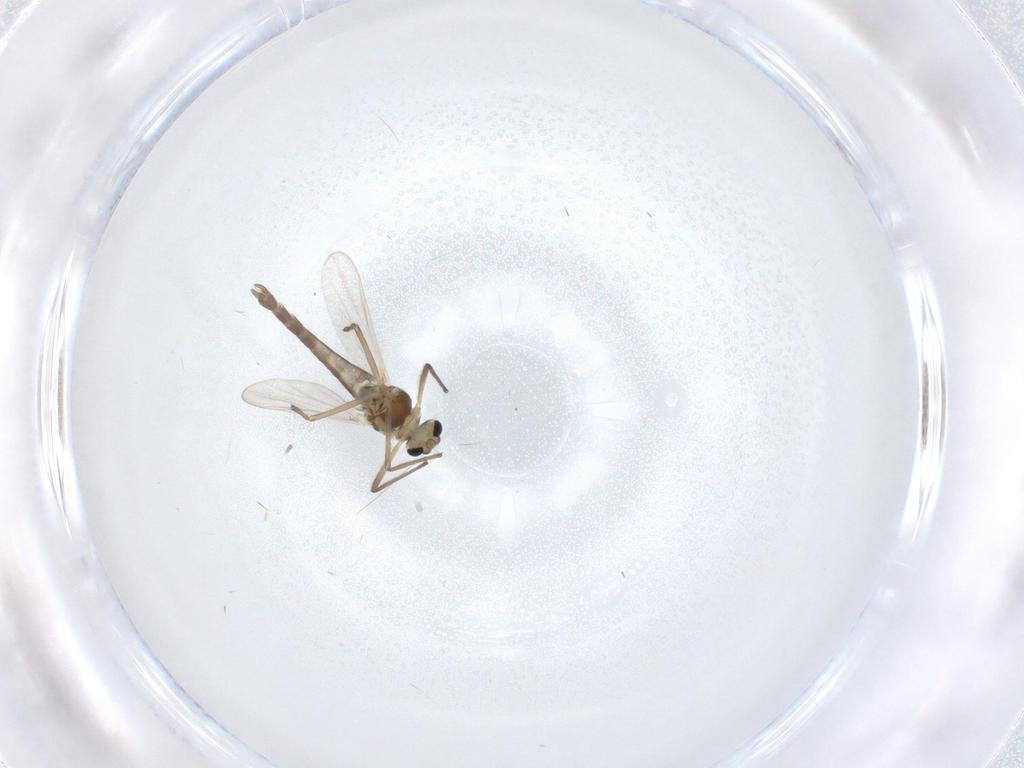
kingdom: Animalia
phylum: Arthropoda
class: Insecta
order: Diptera
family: Chironomidae
